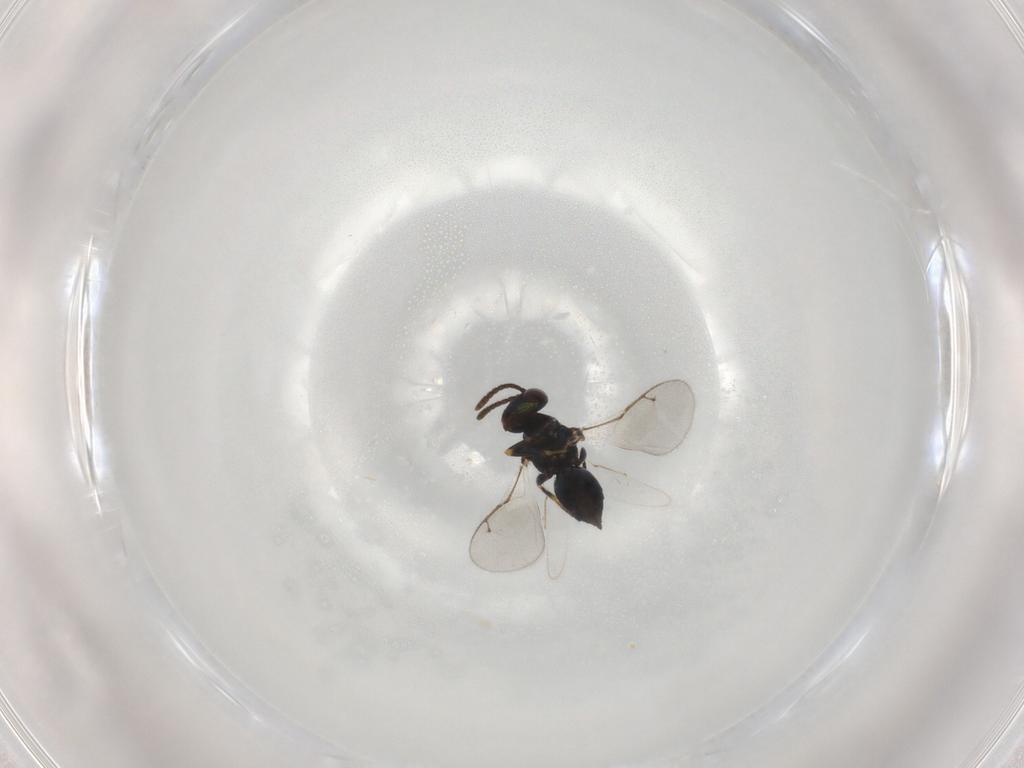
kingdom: Animalia
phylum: Arthropoda
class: Insecta
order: Hymenoptera
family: Pteromalidae
